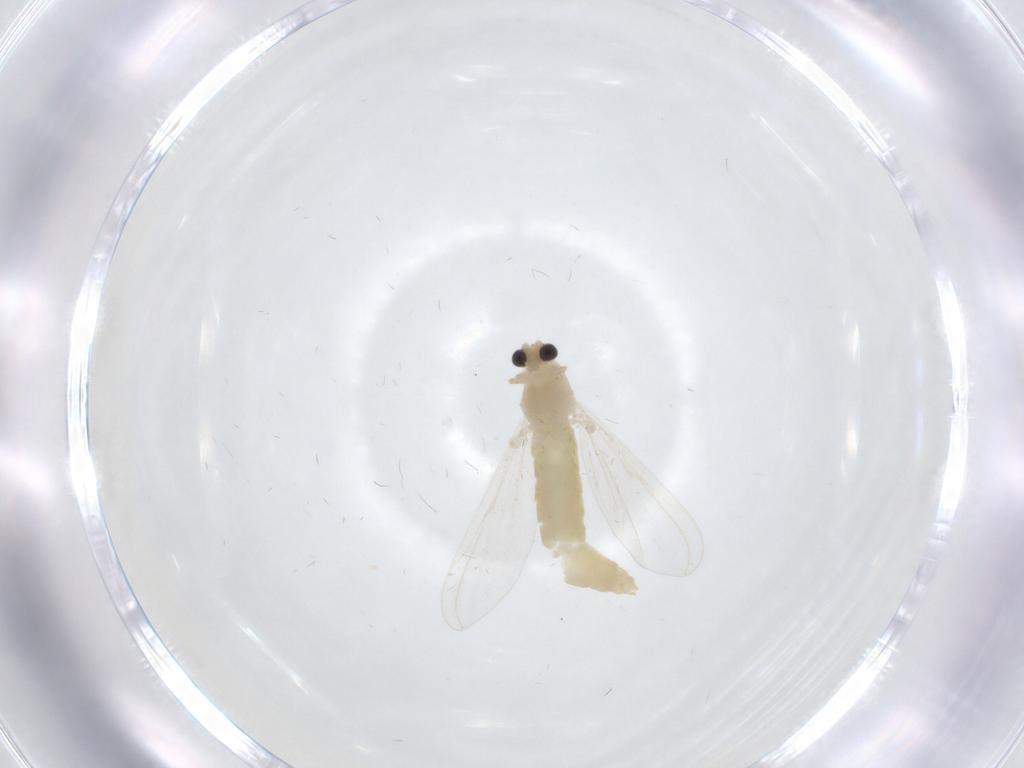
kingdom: Animalia
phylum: Arthropoda
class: Insecta
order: Diptera
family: Chironomidae
